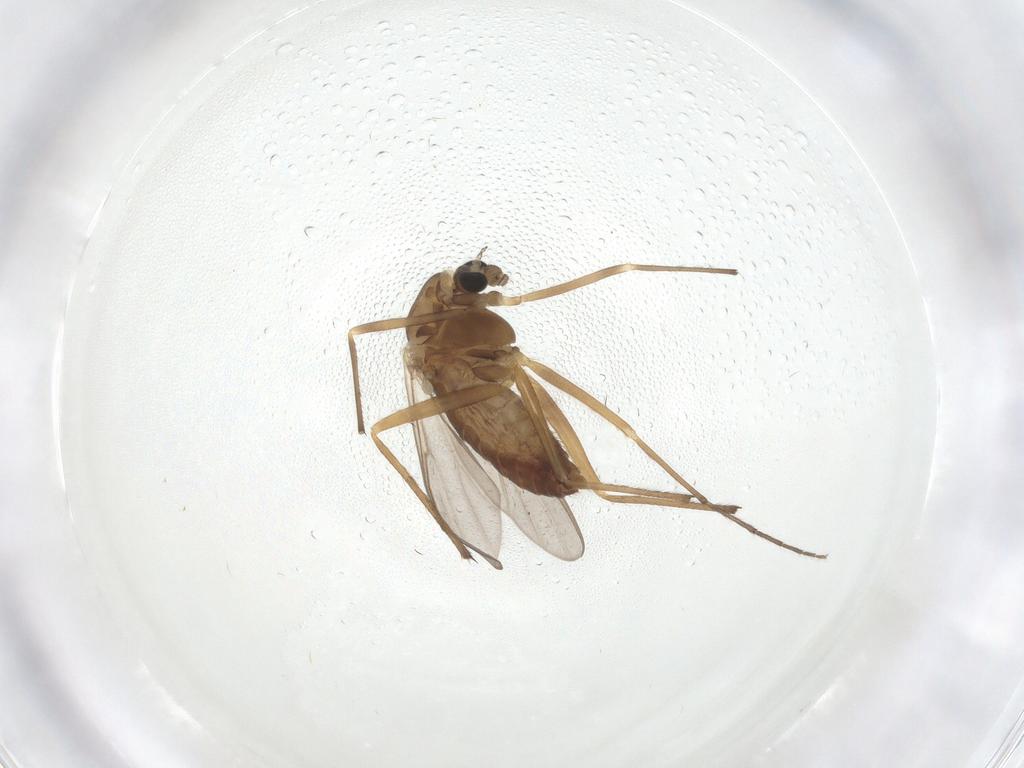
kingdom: Animalia
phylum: Arthropoda
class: Insecta
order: Diptera
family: Chironomidae
